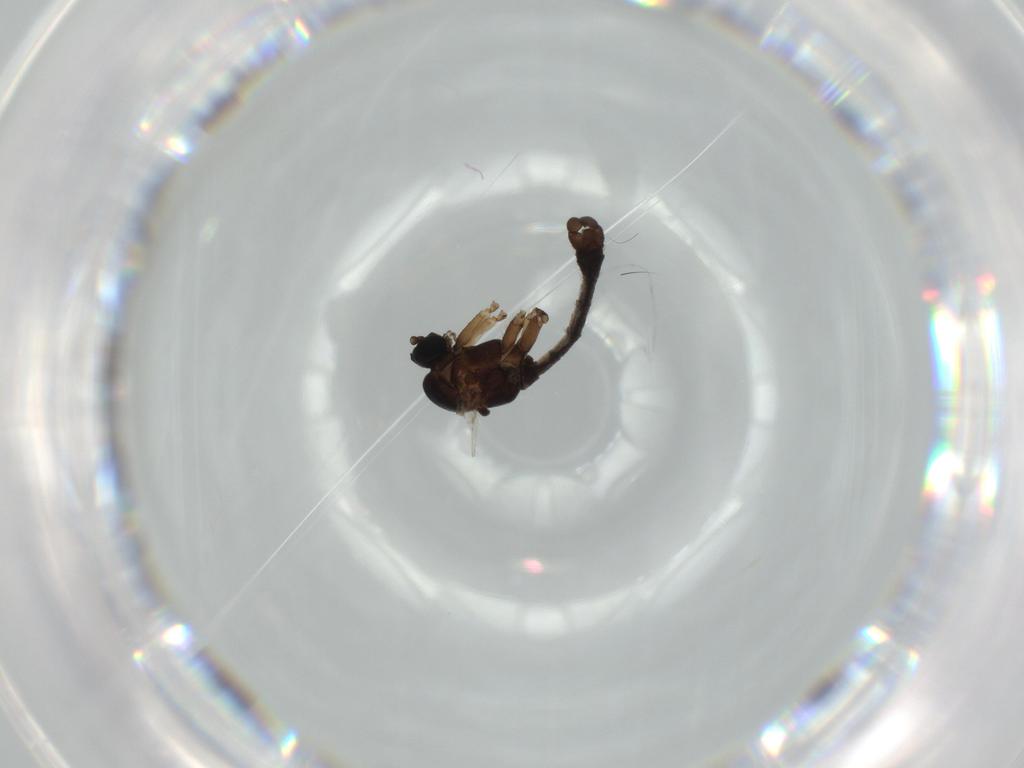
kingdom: Animalia
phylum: Arthropoda
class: Insecta
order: Diptera
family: Sciaridae
